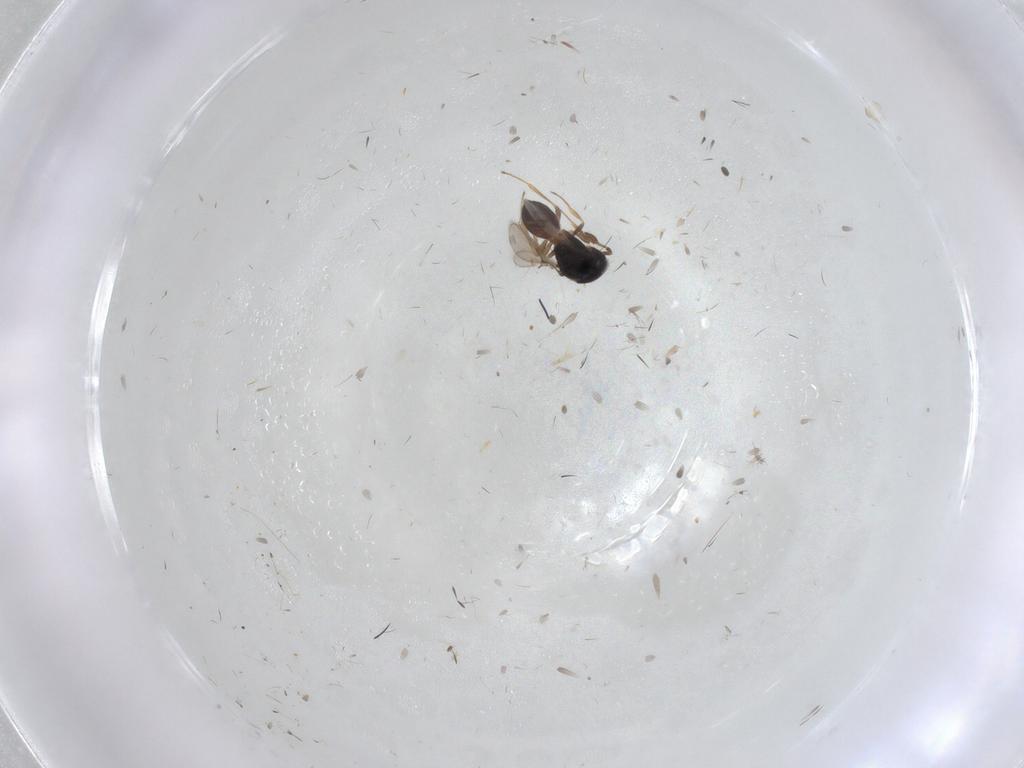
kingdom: Animalia
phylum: Arthropoda
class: Insecta
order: Hymenoptera
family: Scelionidae
